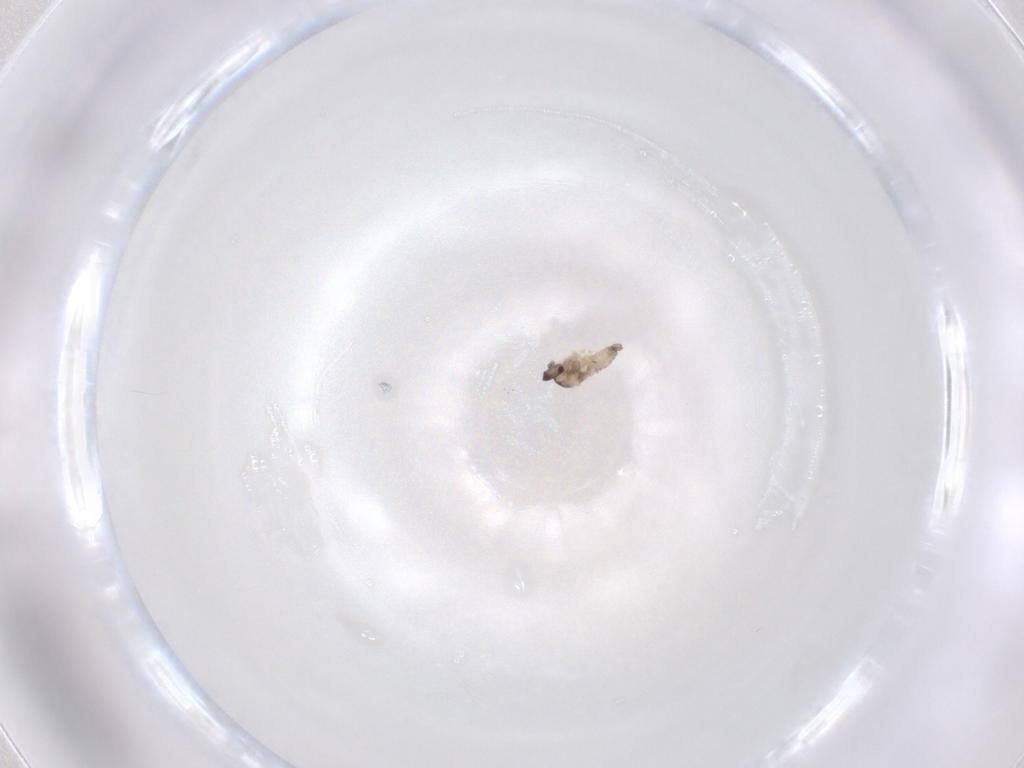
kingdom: Animalia
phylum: Arthropoda
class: Insecta
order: Diptera
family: Cecidomyiidae
